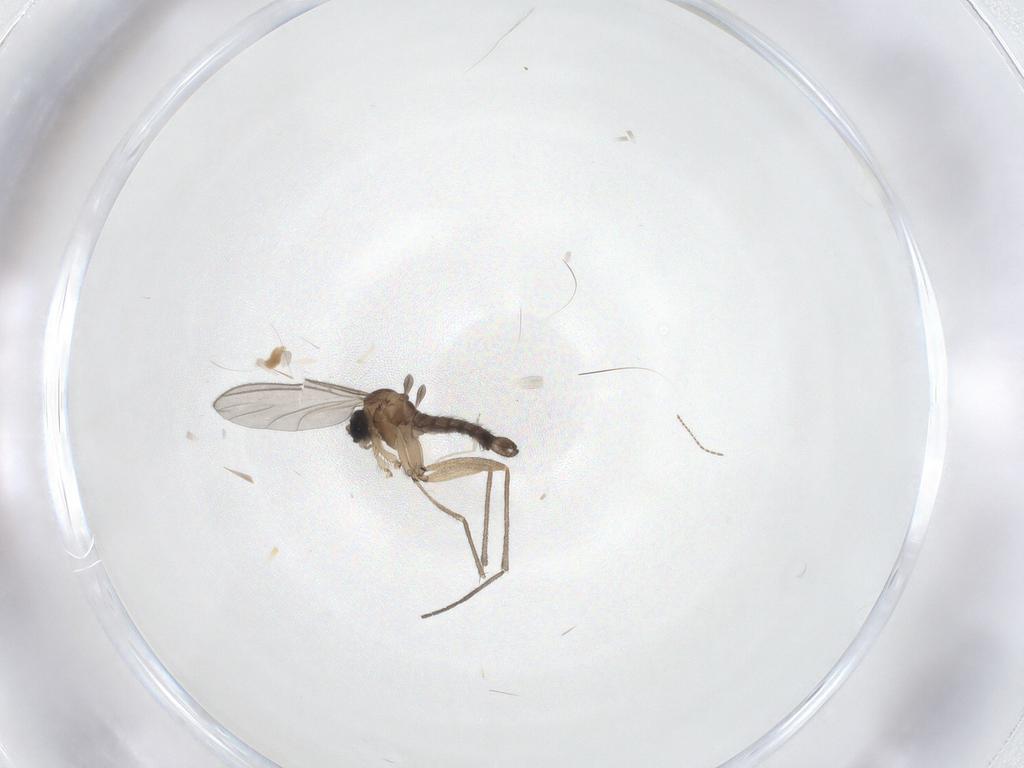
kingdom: Animalia
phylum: Arthropoda
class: Insecta
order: Diptera
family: Sciaridae
